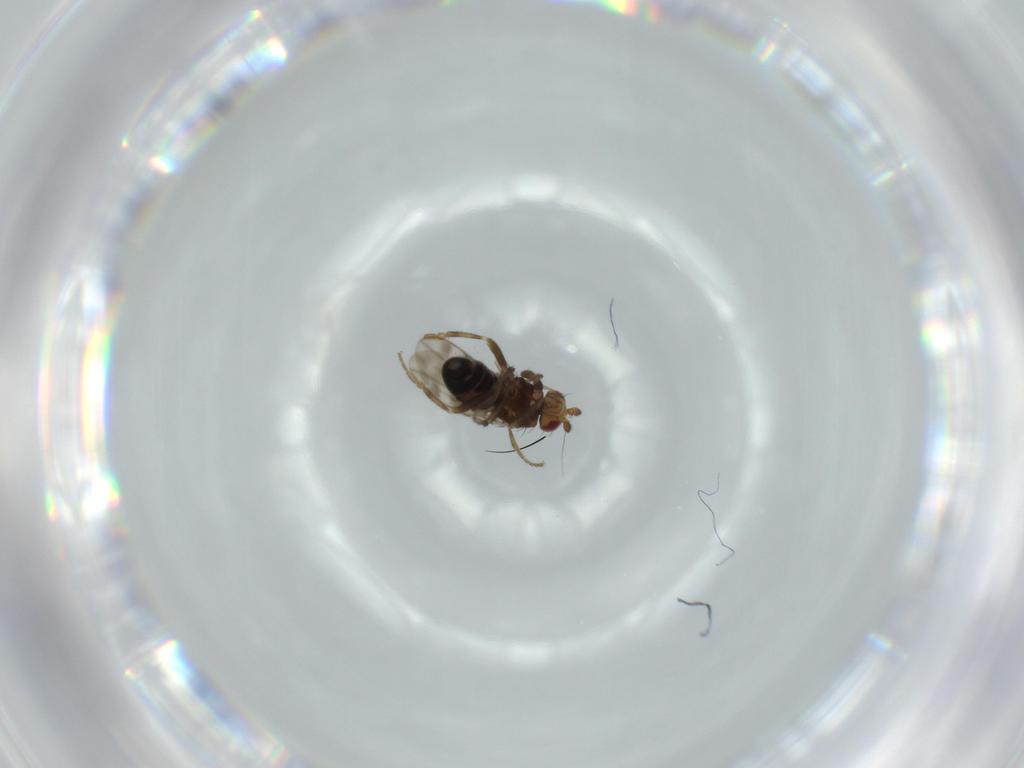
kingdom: Animalia
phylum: Arthropoda
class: Insecta
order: Diptera
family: Sphaeroceridae
